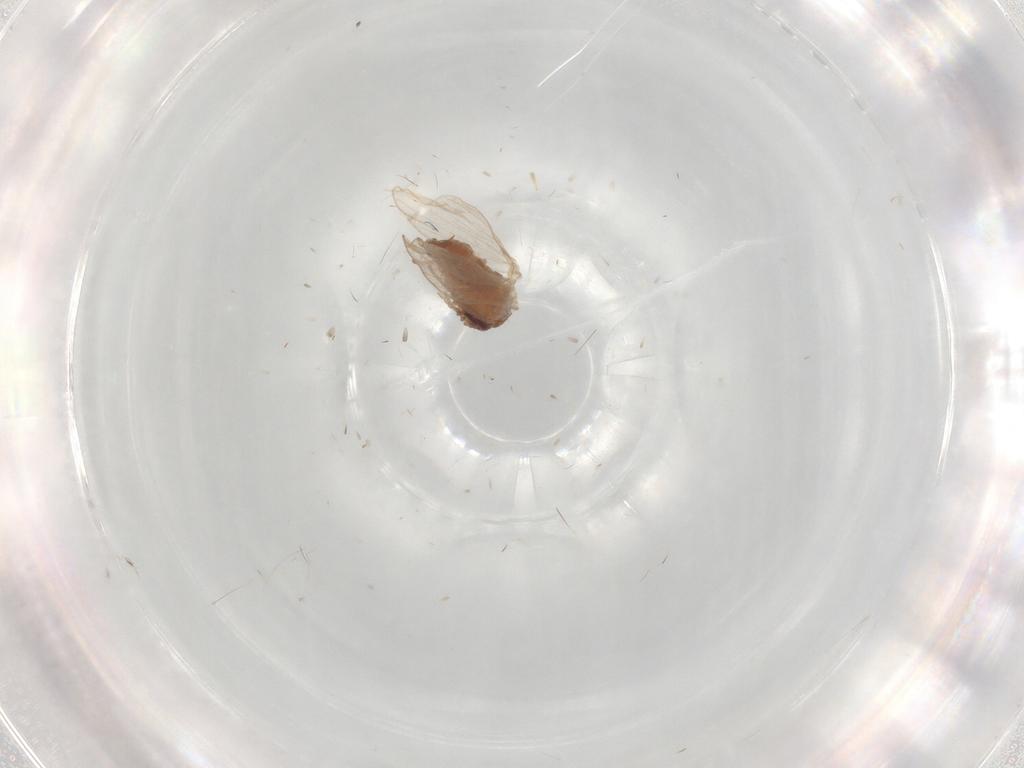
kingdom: Animalia
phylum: Arthropoda
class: Insecta
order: Diptera
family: Psychodidae
